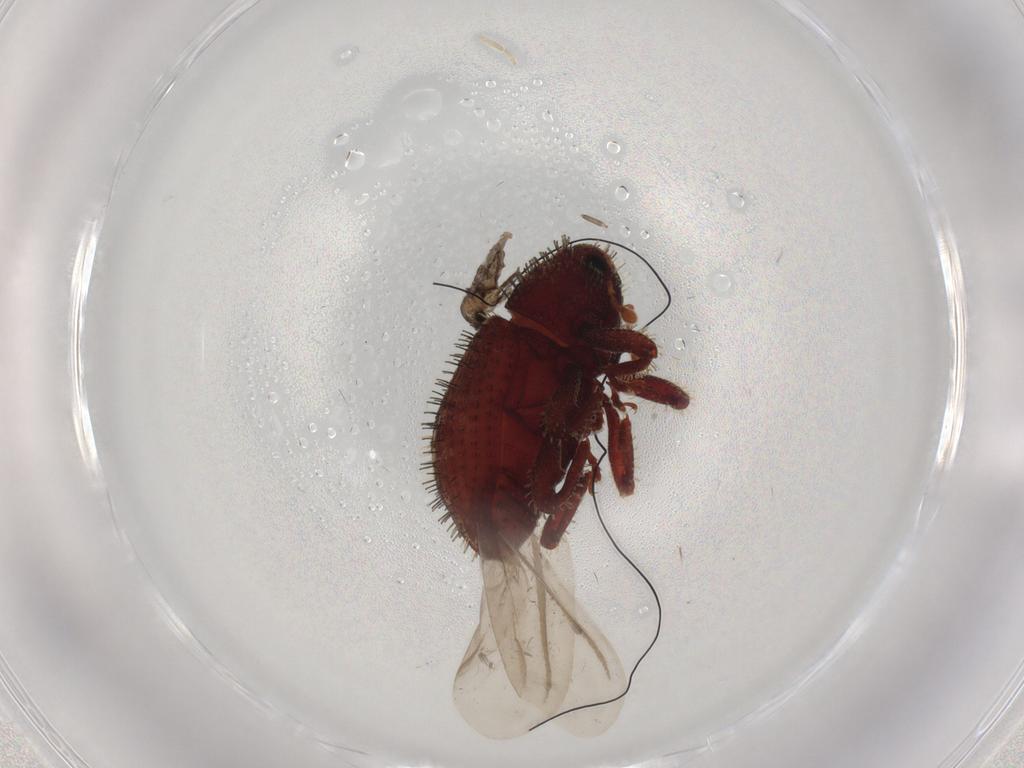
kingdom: Animalia
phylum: Arthropoda
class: Insecta
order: Coleoptera
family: Curculionidae
